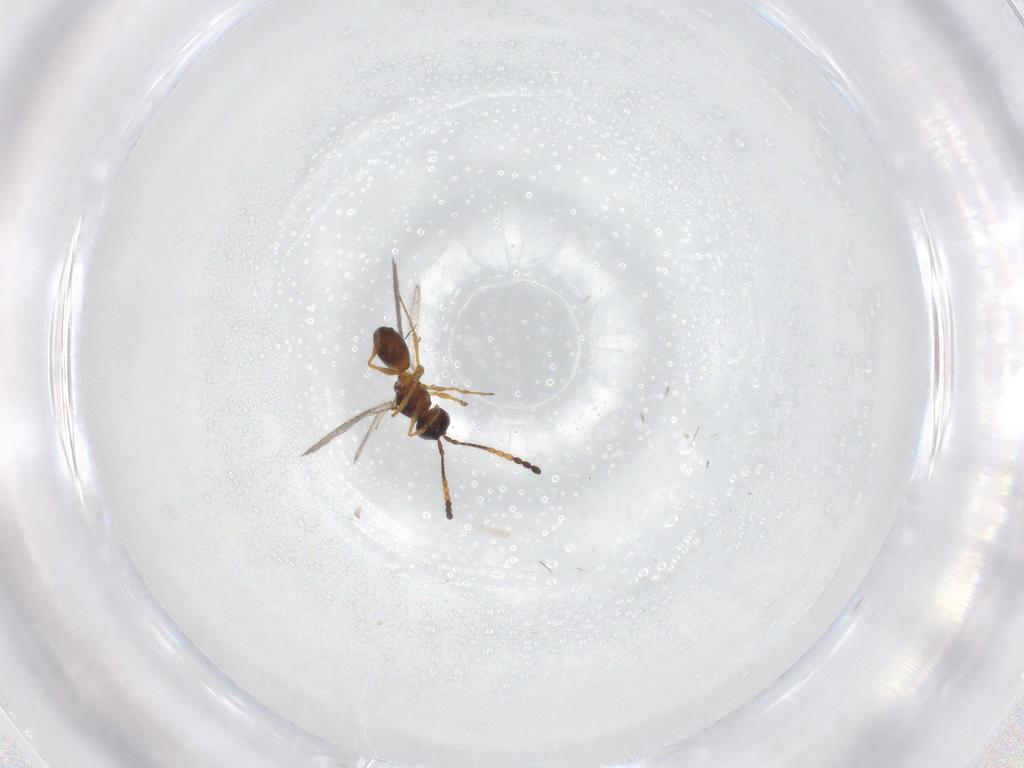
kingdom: Animalia
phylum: Arthropoda
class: Insecta
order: Hymenoptera
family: Figitidae
